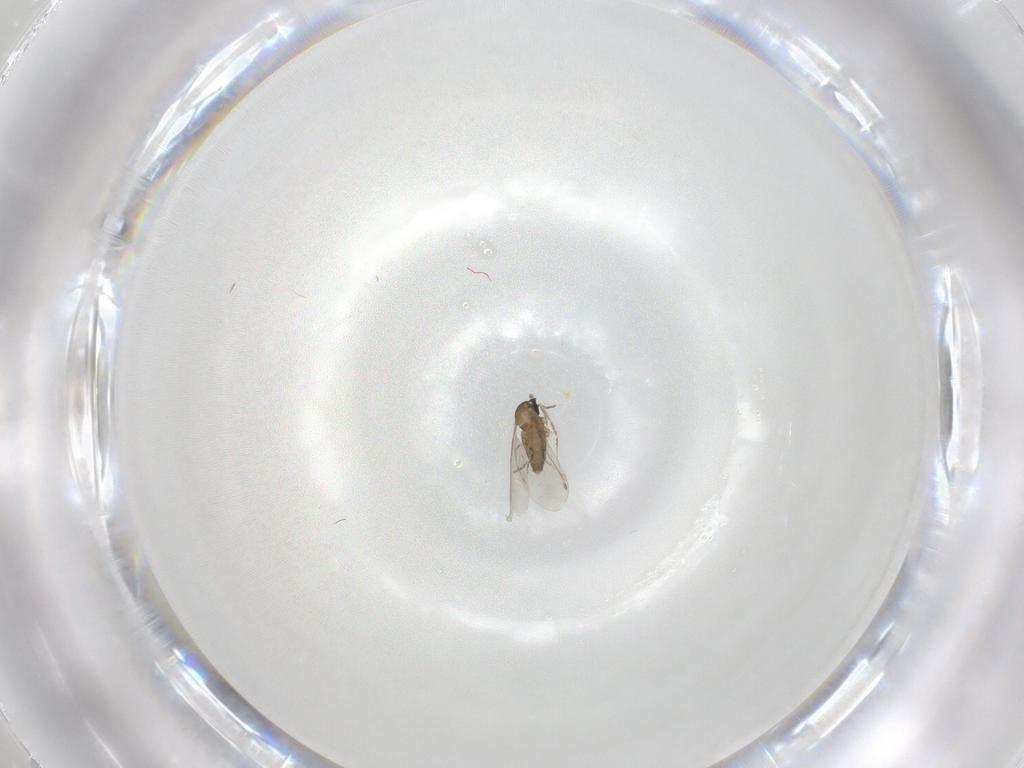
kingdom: Animalia
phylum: Arthropoda
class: Insecta
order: Diptera
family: Cecidomyiidae
